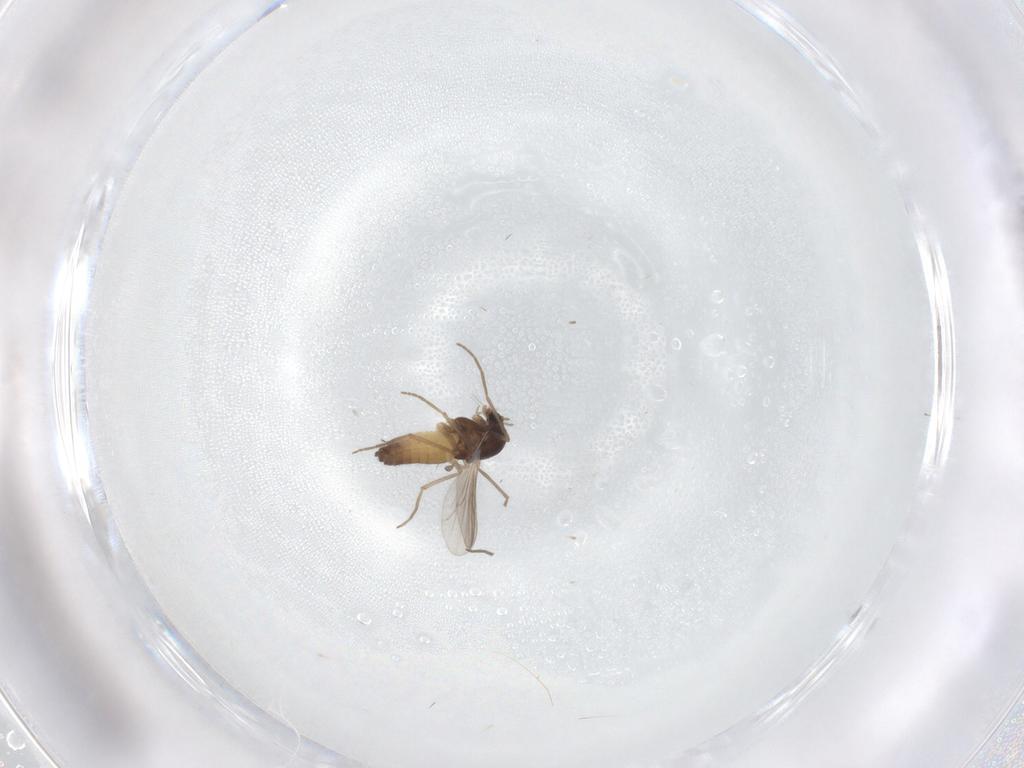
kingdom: Animalia
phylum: Arthropoda
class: Insecta
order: Diptera
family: Chironomidae
